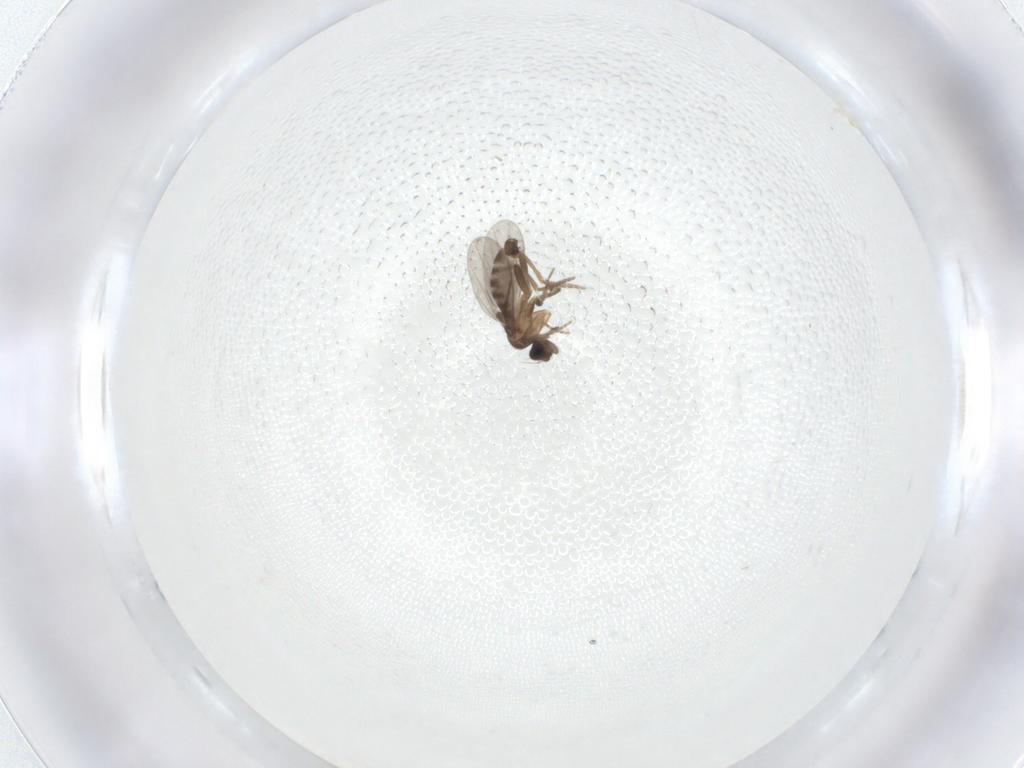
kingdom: Animalia
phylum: Arthropoda
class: Insecta
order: Diptera
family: Phoridae
